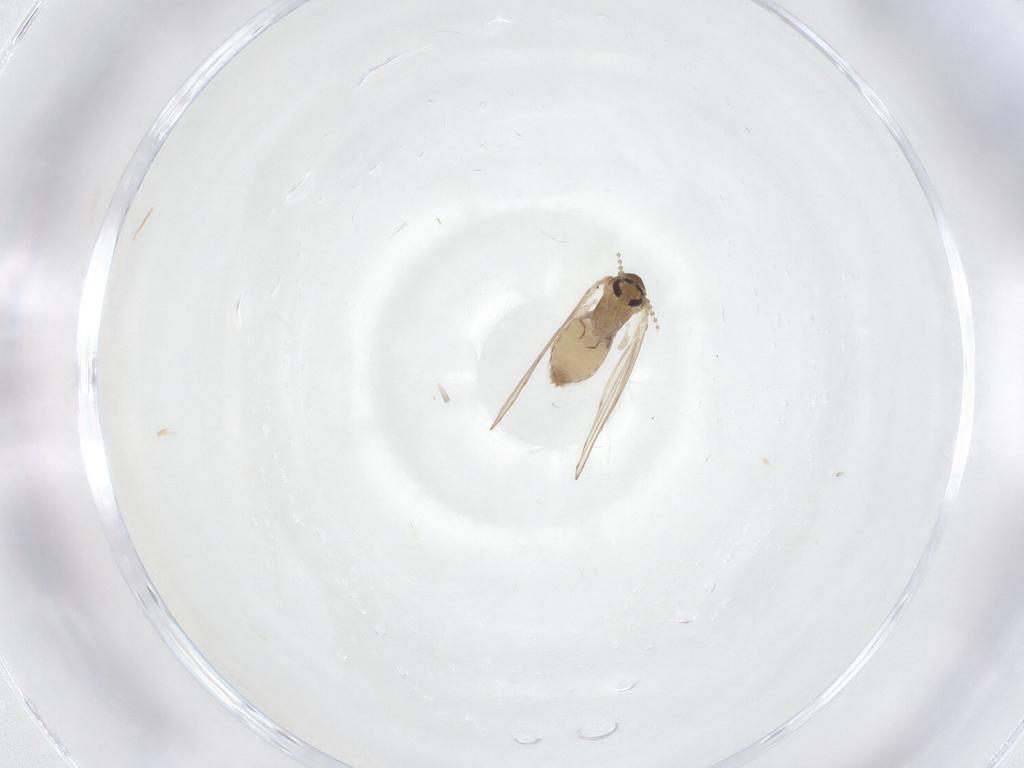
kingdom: Animalia
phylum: Arthropoda
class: Insecta
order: Diptera
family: Psychodidae
